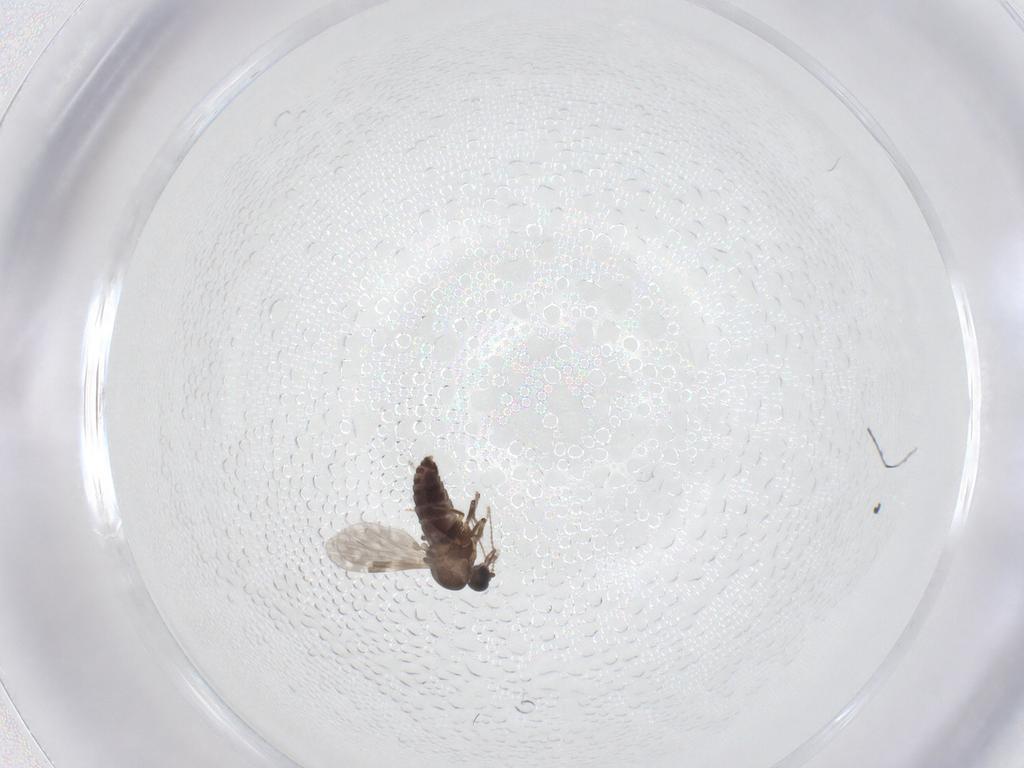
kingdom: Animalia
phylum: Arthropoda
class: Insecta
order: Diptera
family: Ceratopogonidae
